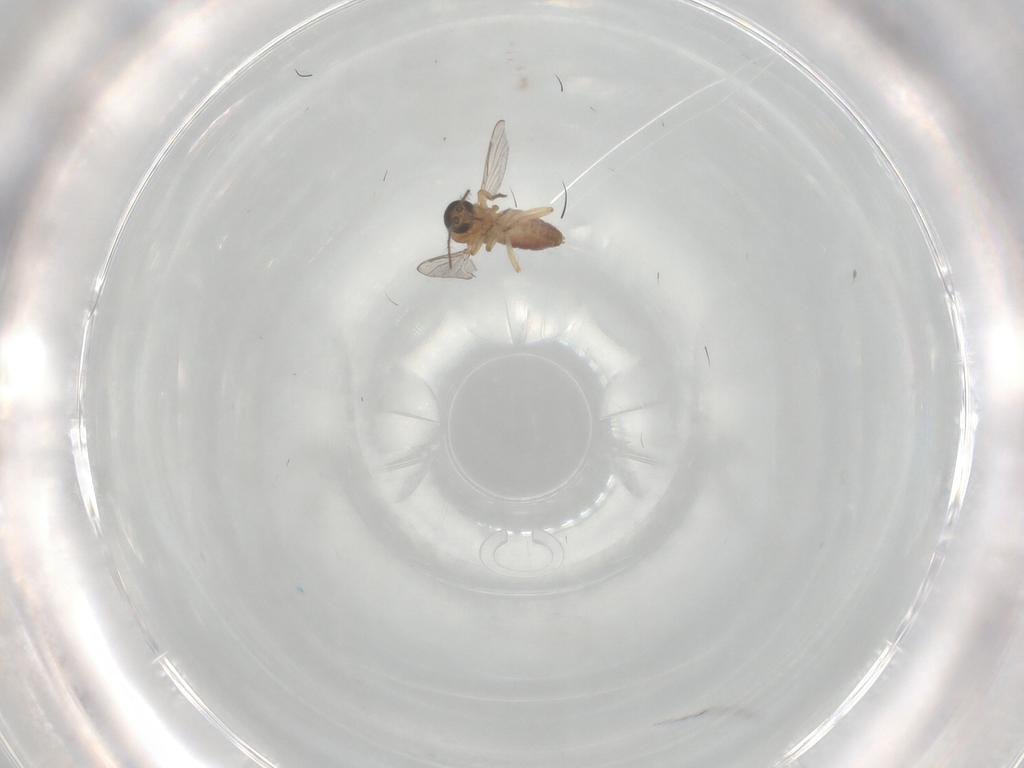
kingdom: Animalia
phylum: Arthropoda
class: Insecta
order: Diptera
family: Ceratopogonidae
